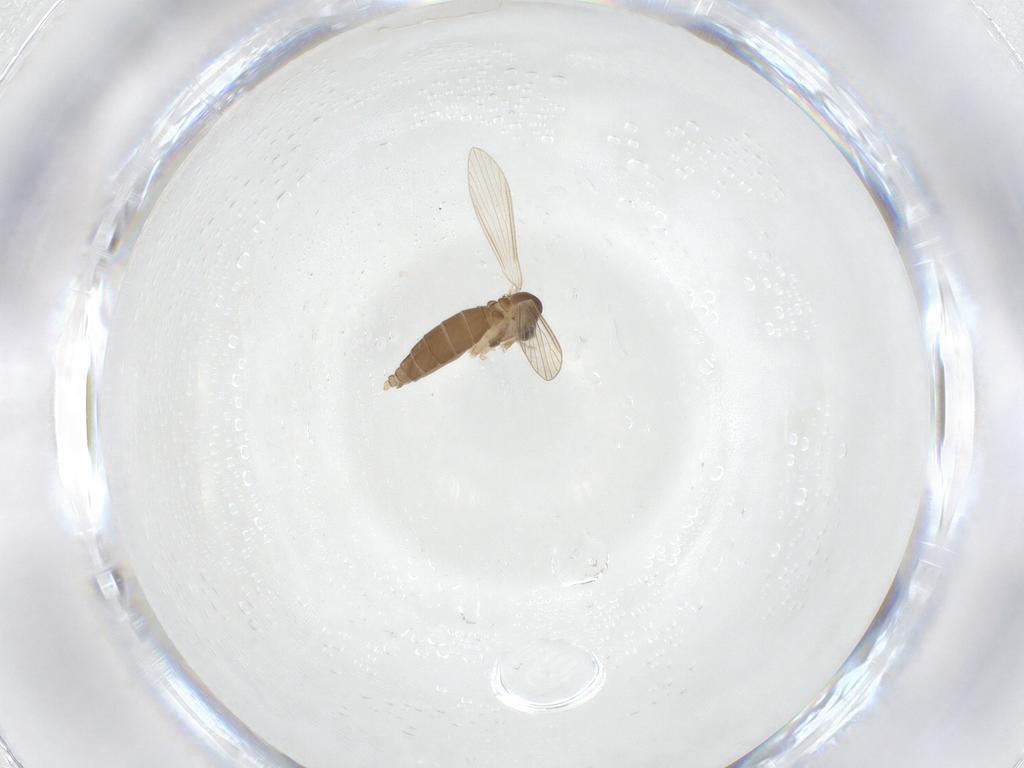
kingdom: Animalia
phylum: Arthropoda
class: Insecta
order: Diptera
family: Psychodidae
